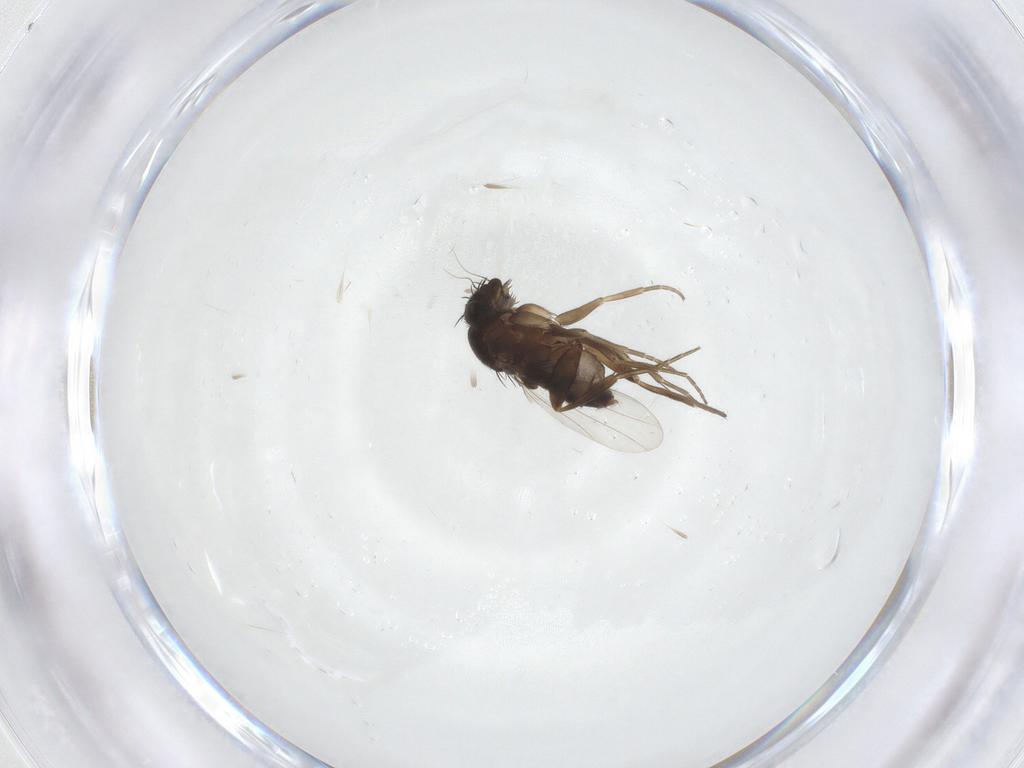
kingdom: Animalia
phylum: Arthropoda
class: Insecta
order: Diptera
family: Phoridae
